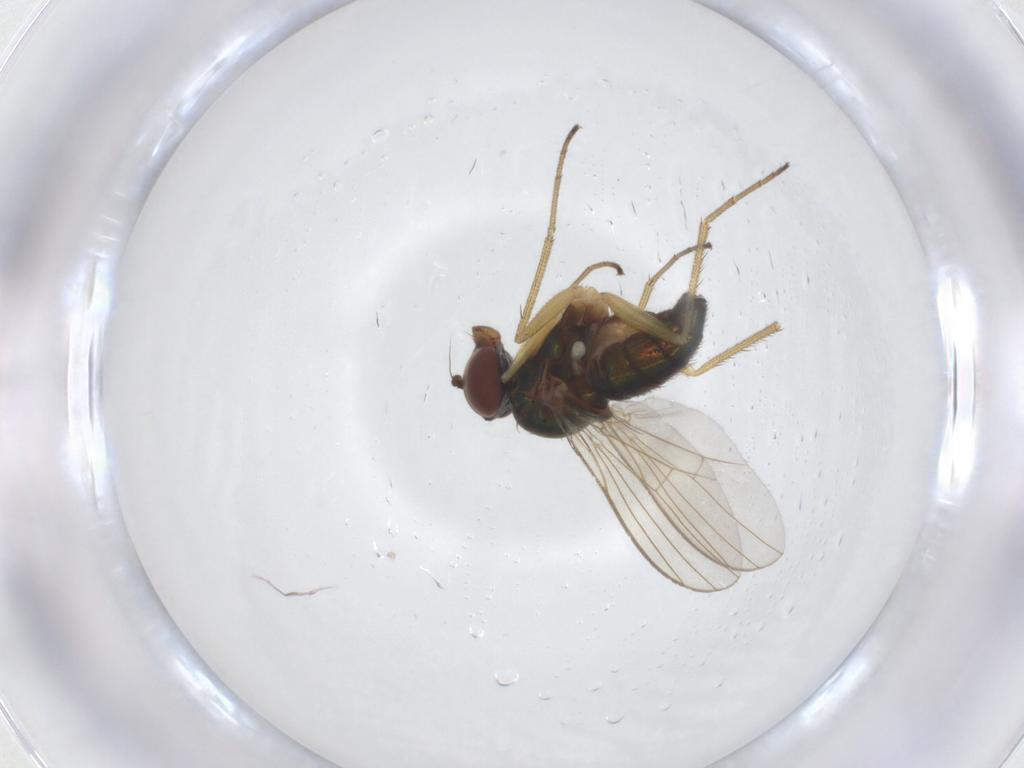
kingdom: Animalia
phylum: Arthropoda
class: Insecta
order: Diptera
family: Dolichopodidae
